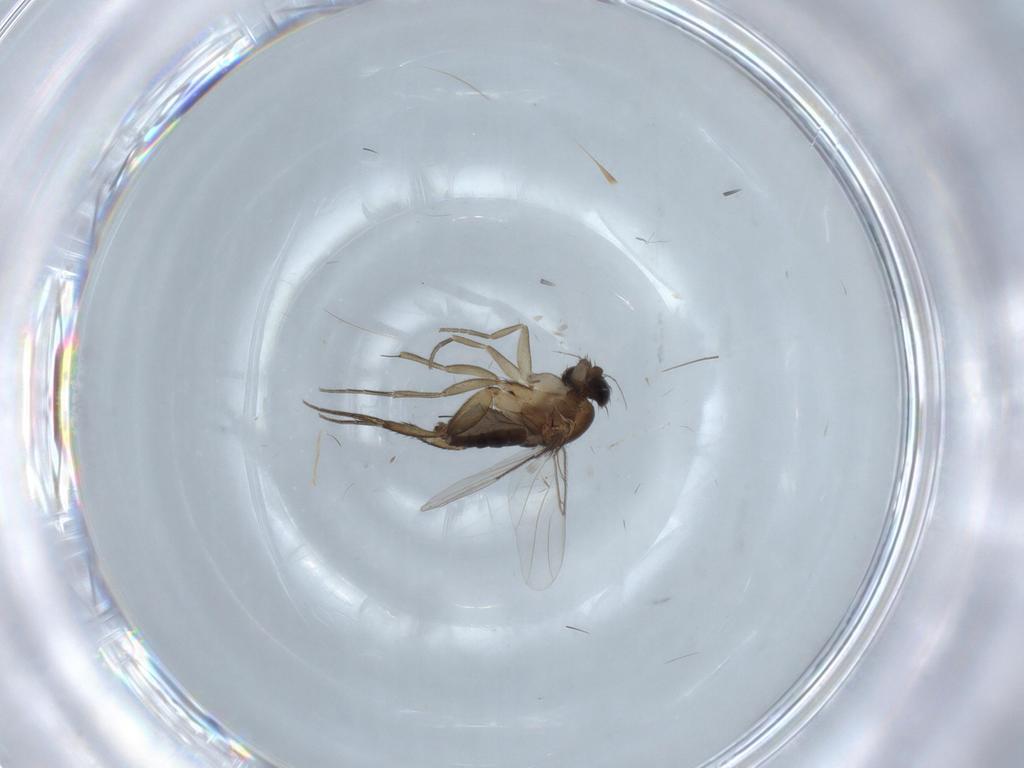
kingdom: Animalia
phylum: Arthropoda
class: Insecta
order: Diptera
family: Phoridae
